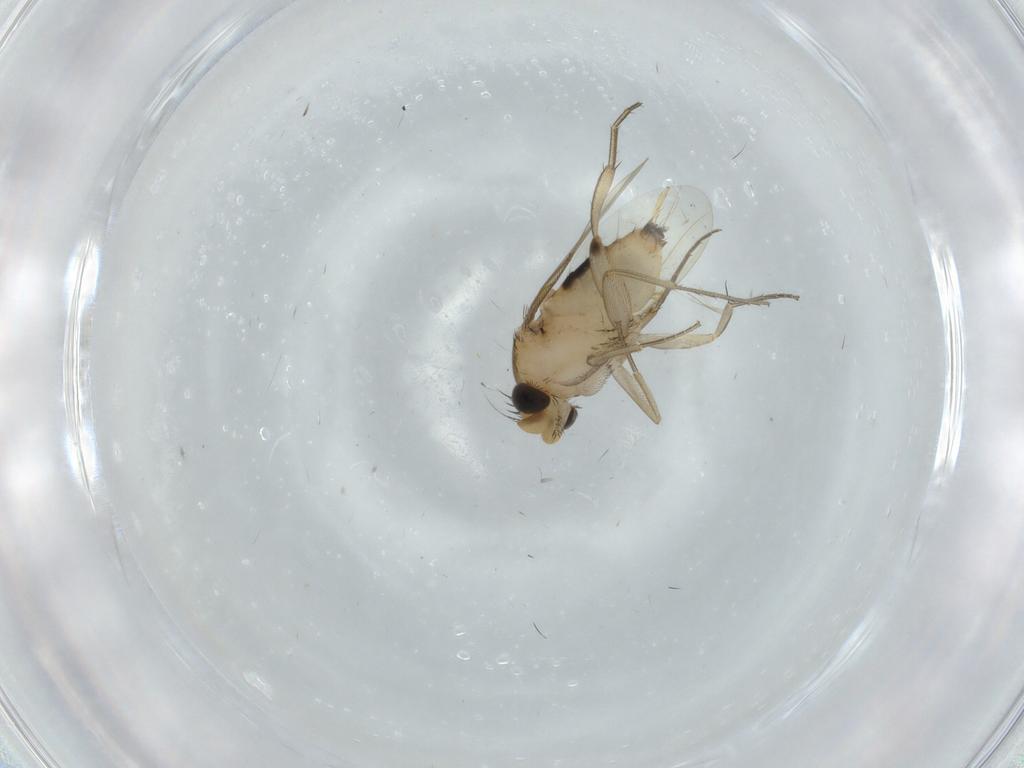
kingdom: Animalia
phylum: Arthropoda
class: Insecta
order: Diptera
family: Phoridae
